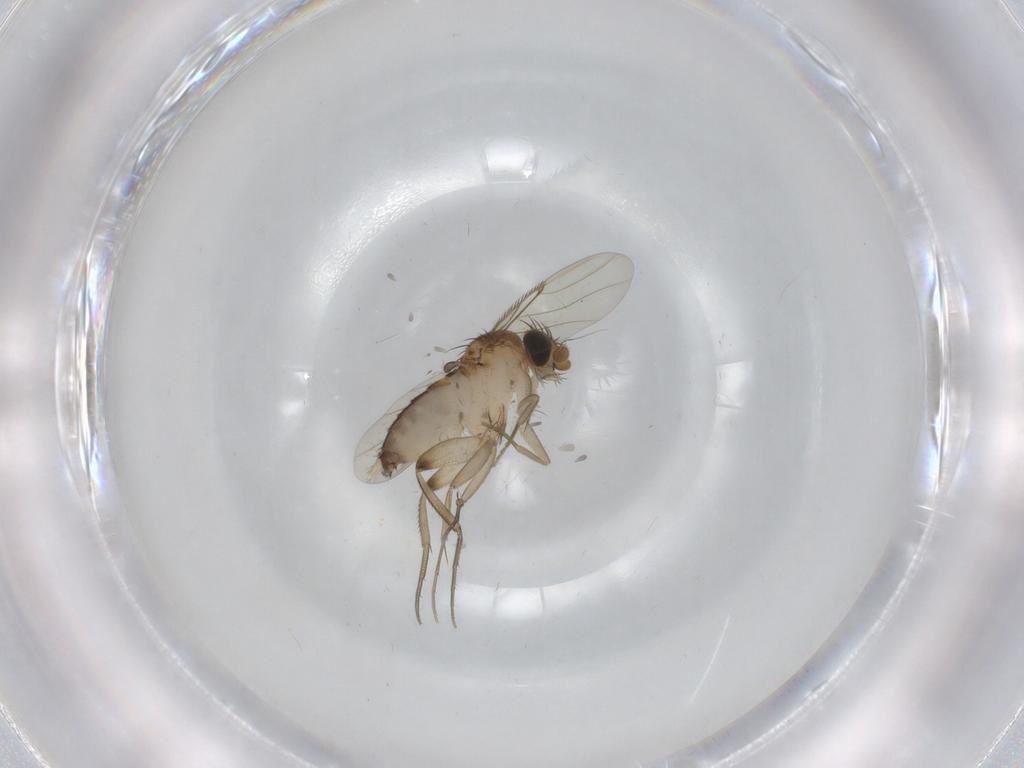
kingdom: Animalia
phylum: Arthropoda
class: Insecta
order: Diptera
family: Phoridae
